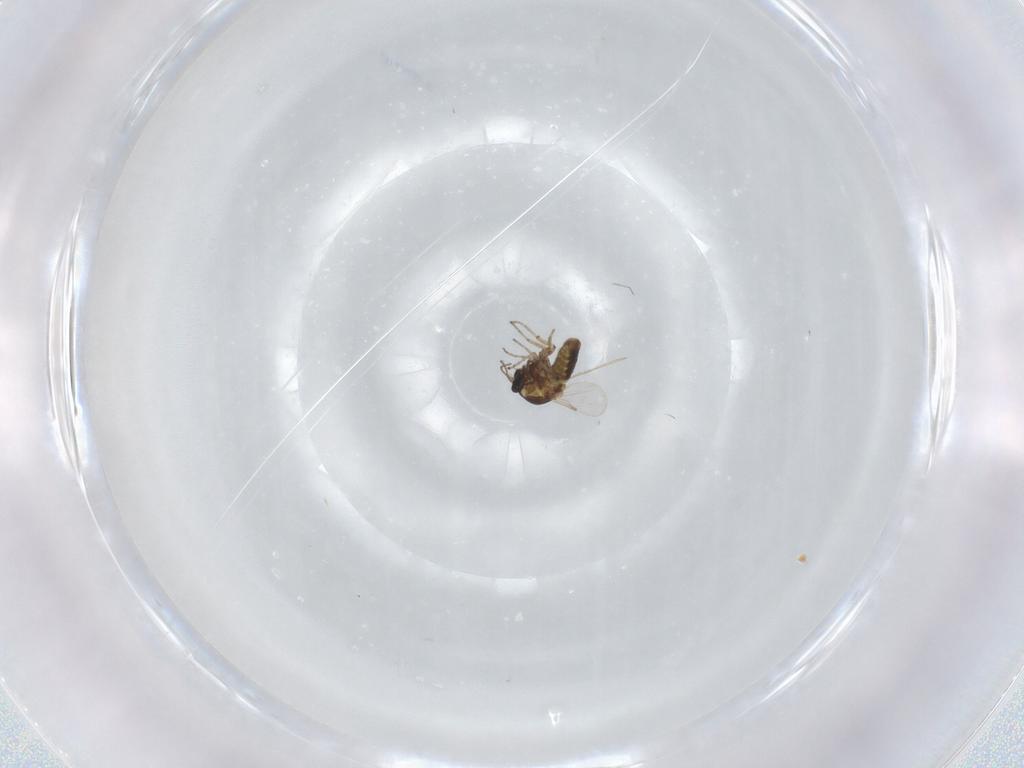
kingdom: Animalia
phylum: Arthropoda
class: Insecta
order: Diptera
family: Ceratopogonidae
